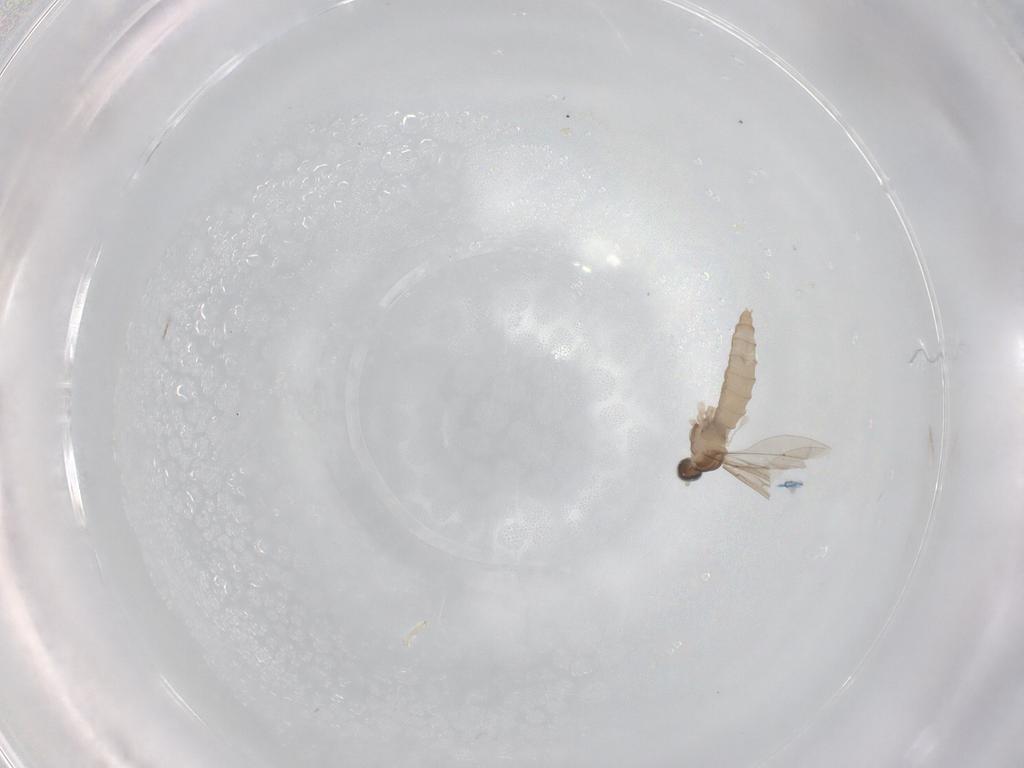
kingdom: Animalia
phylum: Arthropoda
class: Insecta
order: Diptera
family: Cecidomyiidae
